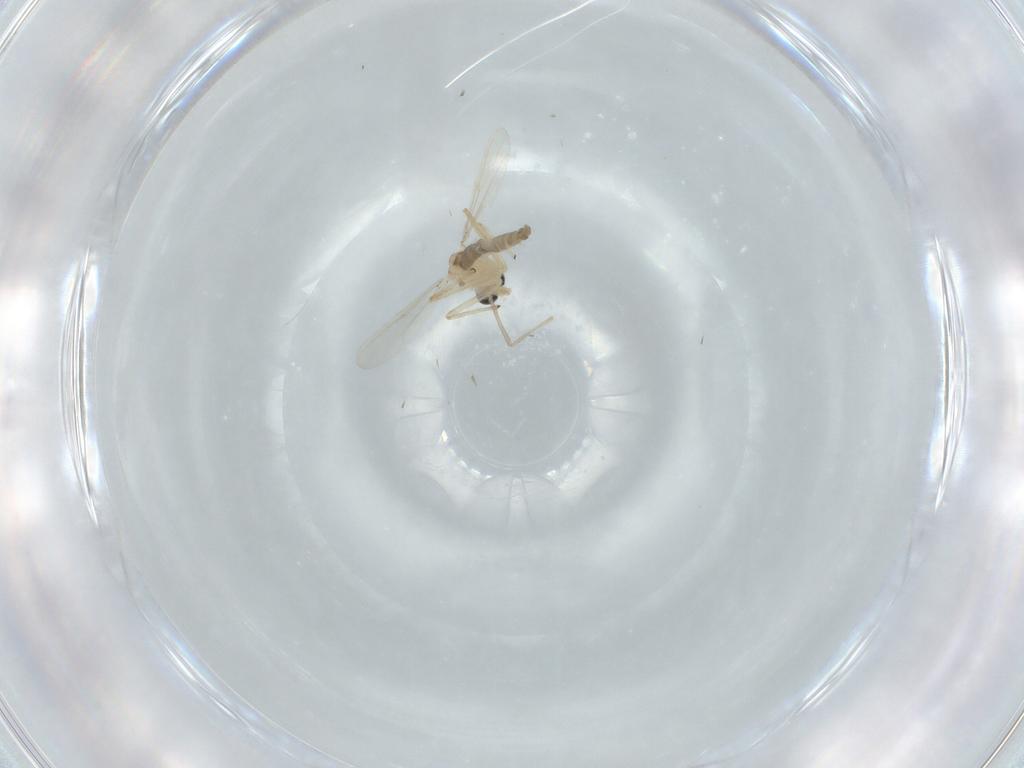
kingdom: Animalia
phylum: Arthropoda
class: Insecta
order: Diptera
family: Chironomidae
